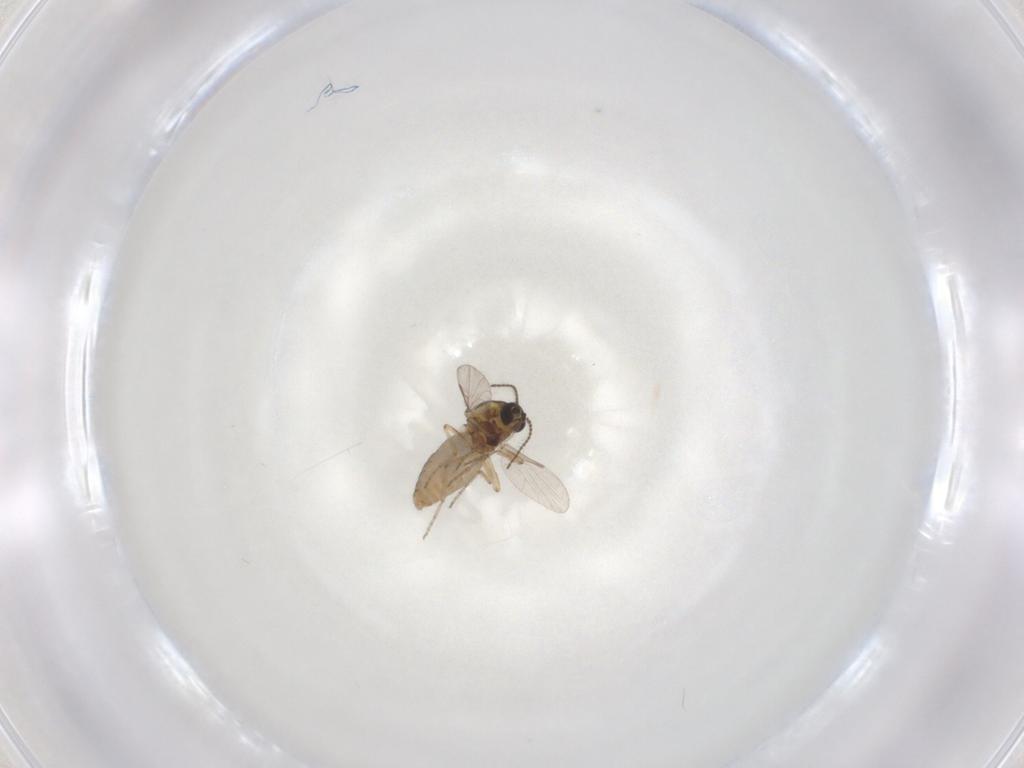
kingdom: Animalia
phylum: Arthropoda
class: Insecta
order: Diptera
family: Ceratopogonidae
